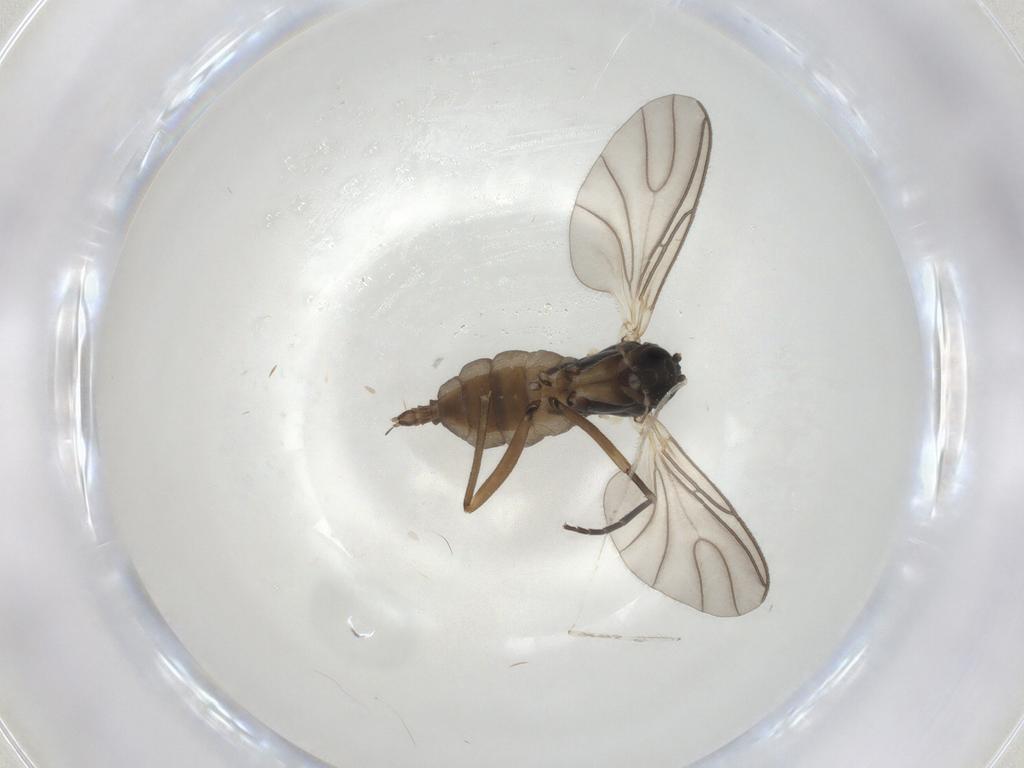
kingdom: Animalia
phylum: Arthropoda
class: Insecta
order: Diptera
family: Sciaridae
